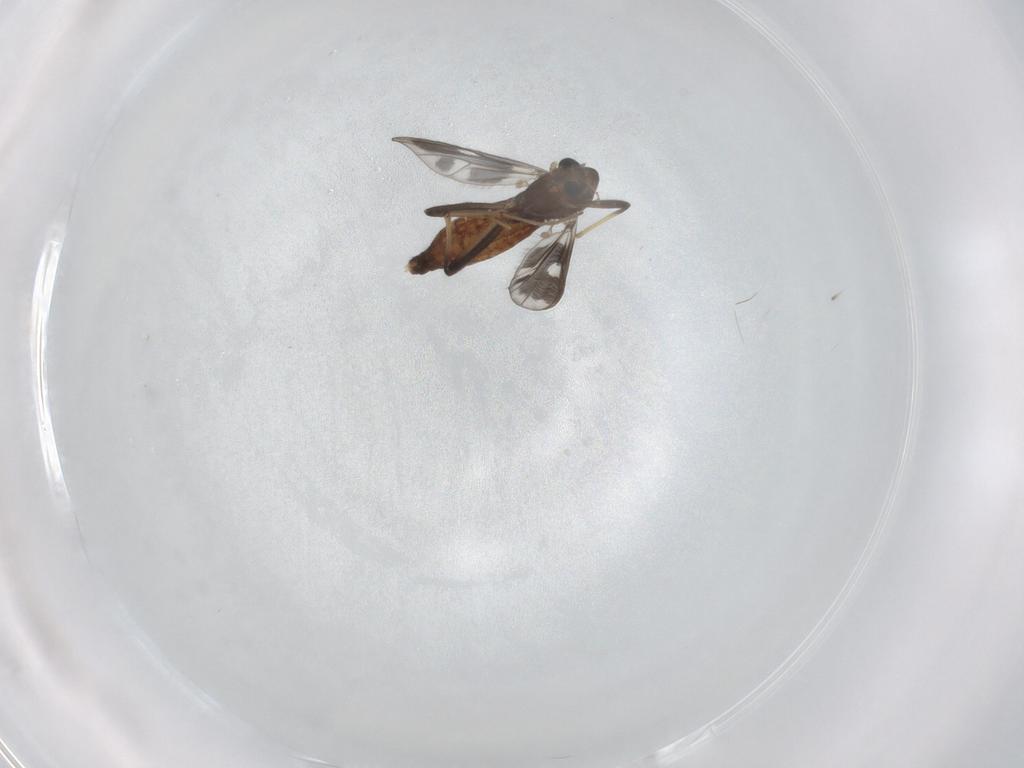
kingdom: Animalia
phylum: Arthropoda
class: Insecta
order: Diptera
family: Chironomidae
